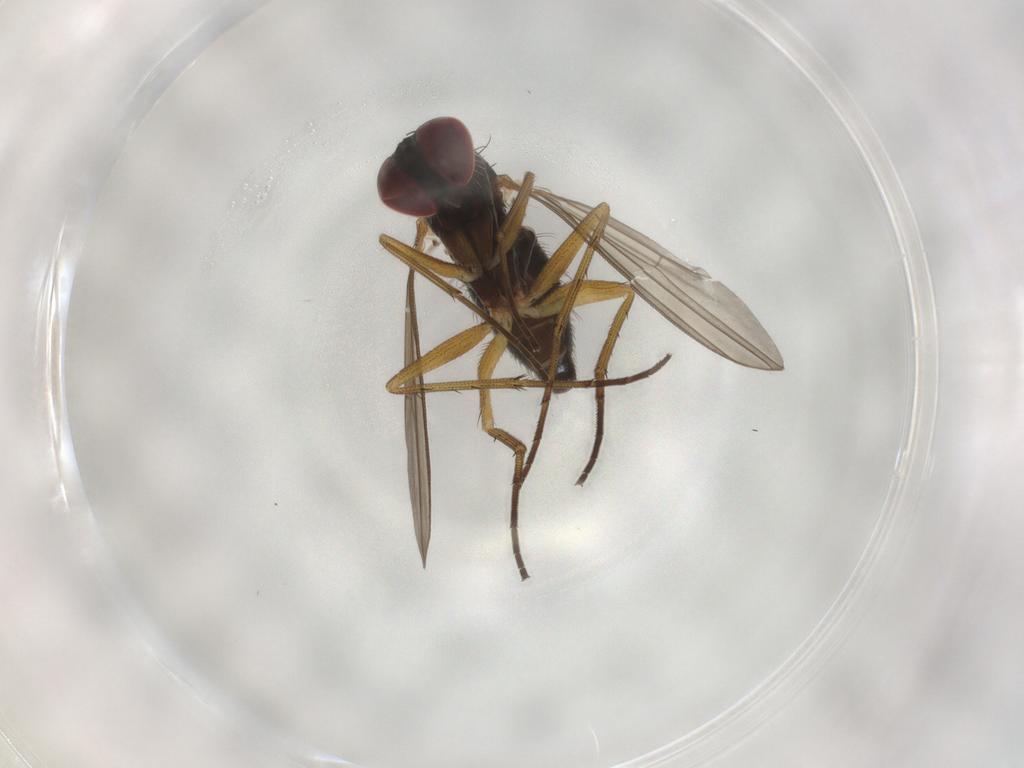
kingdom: Animalia
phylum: Arthropoda
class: Insecta
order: Diptera
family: Dolichopodidae
